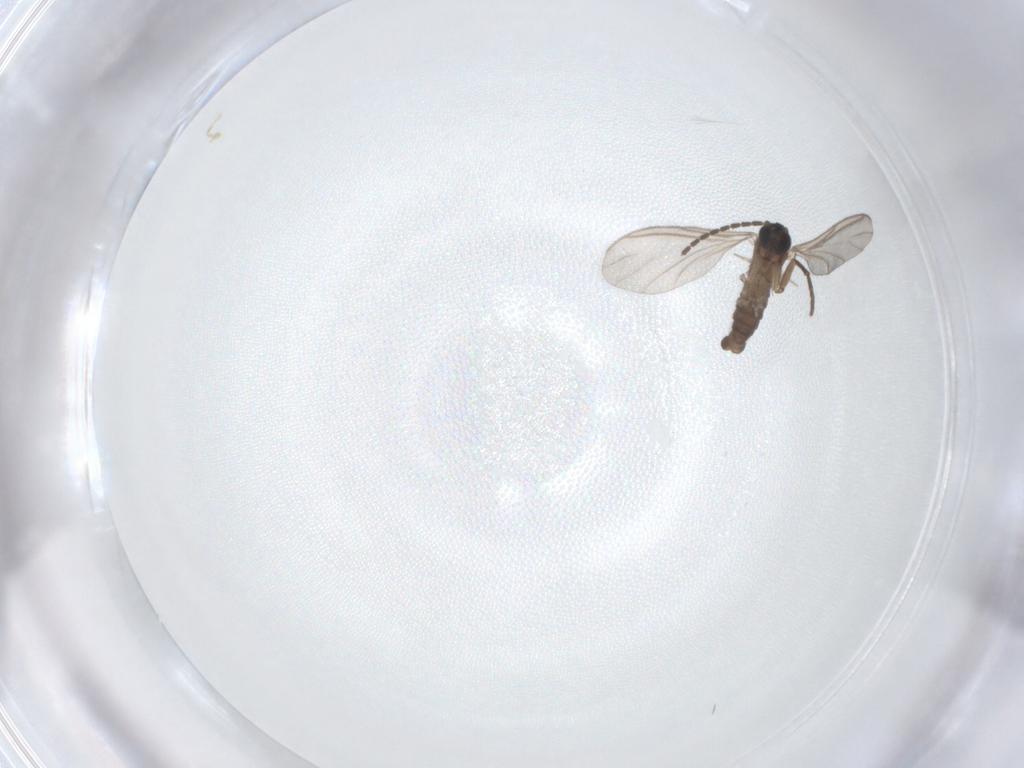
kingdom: Animalia
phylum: Arthropoda
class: Insecta
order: Diptera
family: Sciaridae
